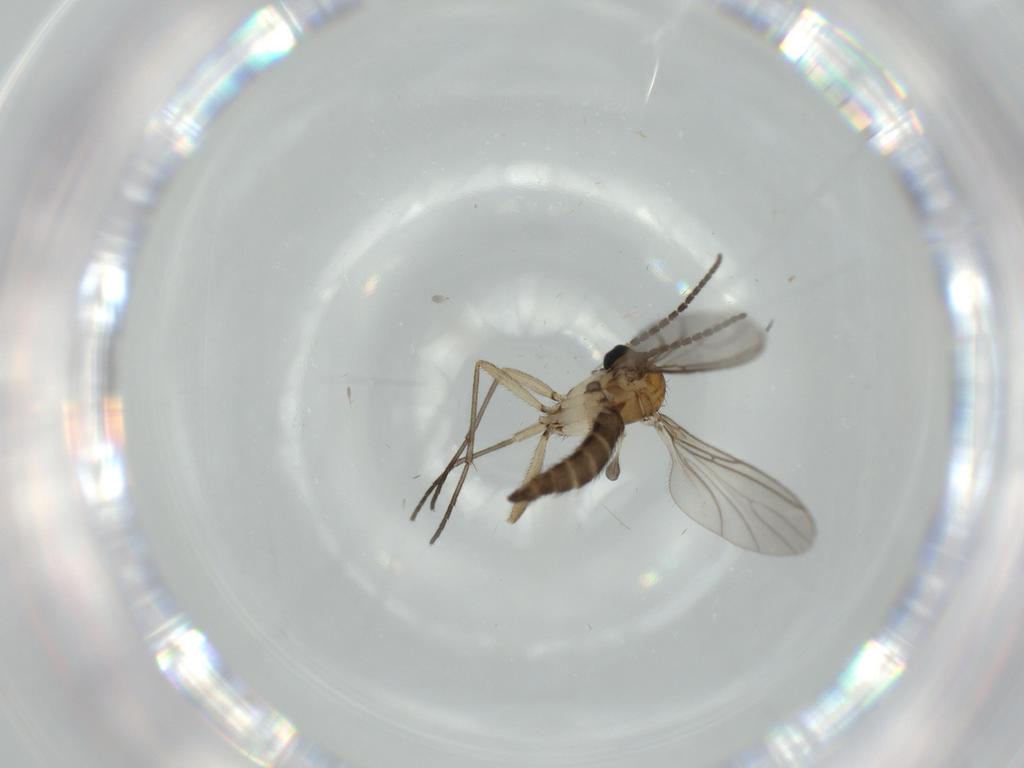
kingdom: Animalia
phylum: Arthropoda
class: Insecta
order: Diptera
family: Sciaridae
